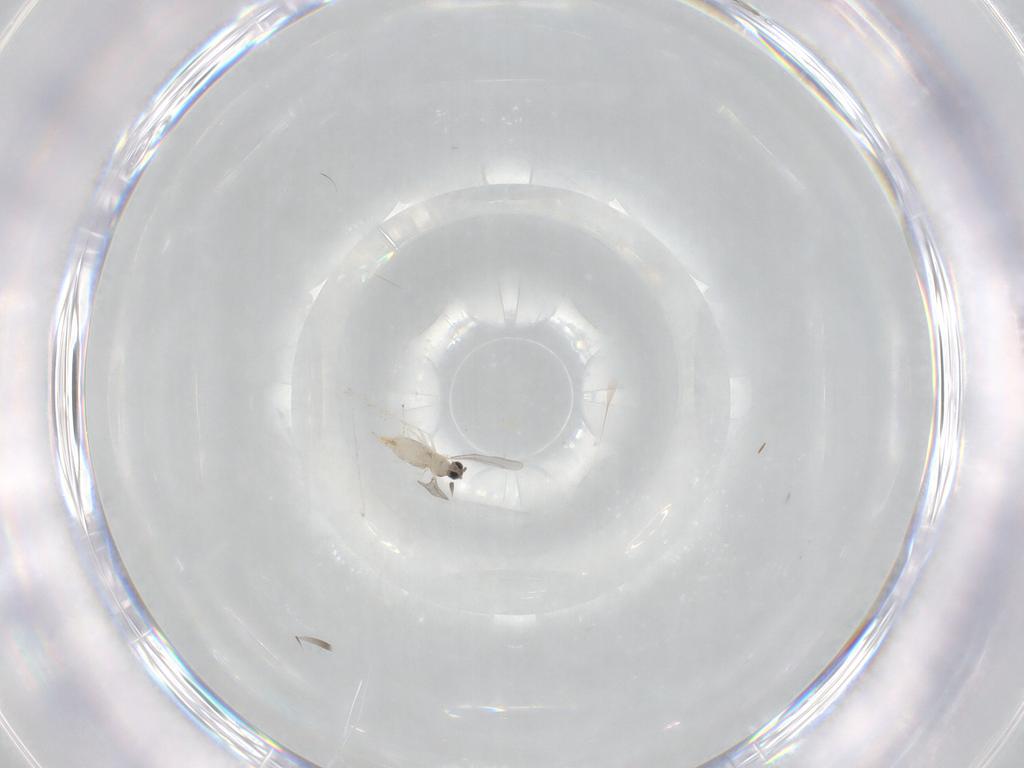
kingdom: Animalia
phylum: Arthropoda
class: Insecta
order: Diptera
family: Cecidomyiidae
